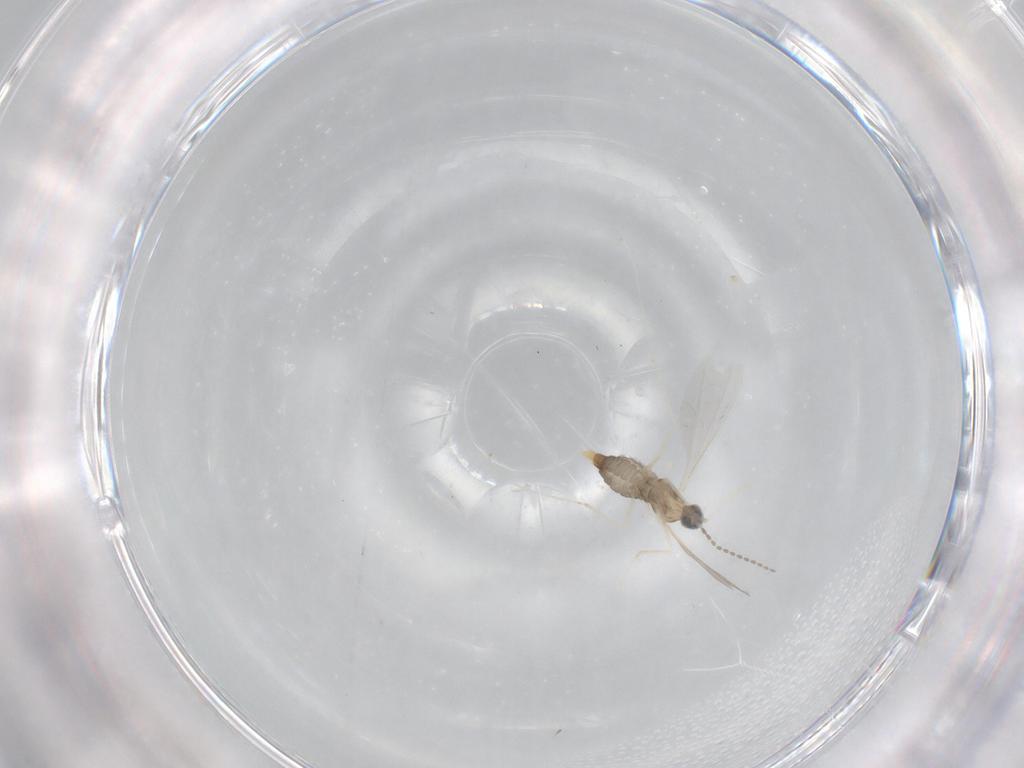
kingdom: Animalia
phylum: Arthropoda
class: Insecta
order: Diptera
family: Cecidomyiidae
